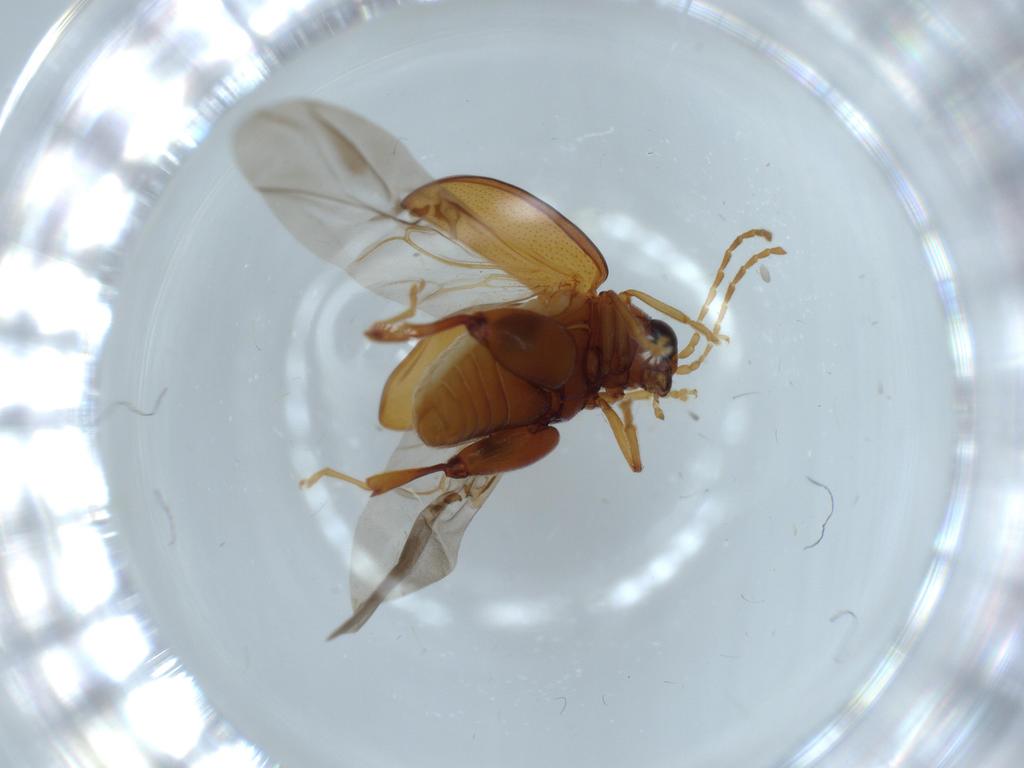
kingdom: Animalia
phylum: Arthropoda
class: Insecta
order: Coleoptera
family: Chrysomelidae
